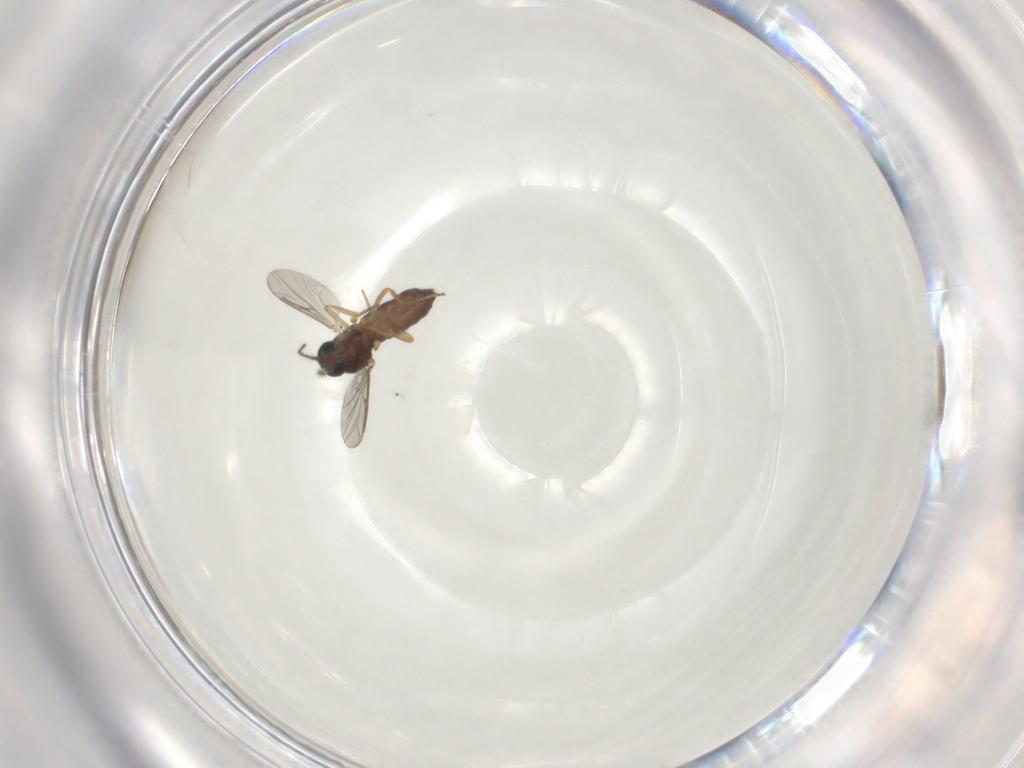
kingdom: Animalia
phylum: Arthropoda
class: Insecta
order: Diptera
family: Ceratopogonidae
